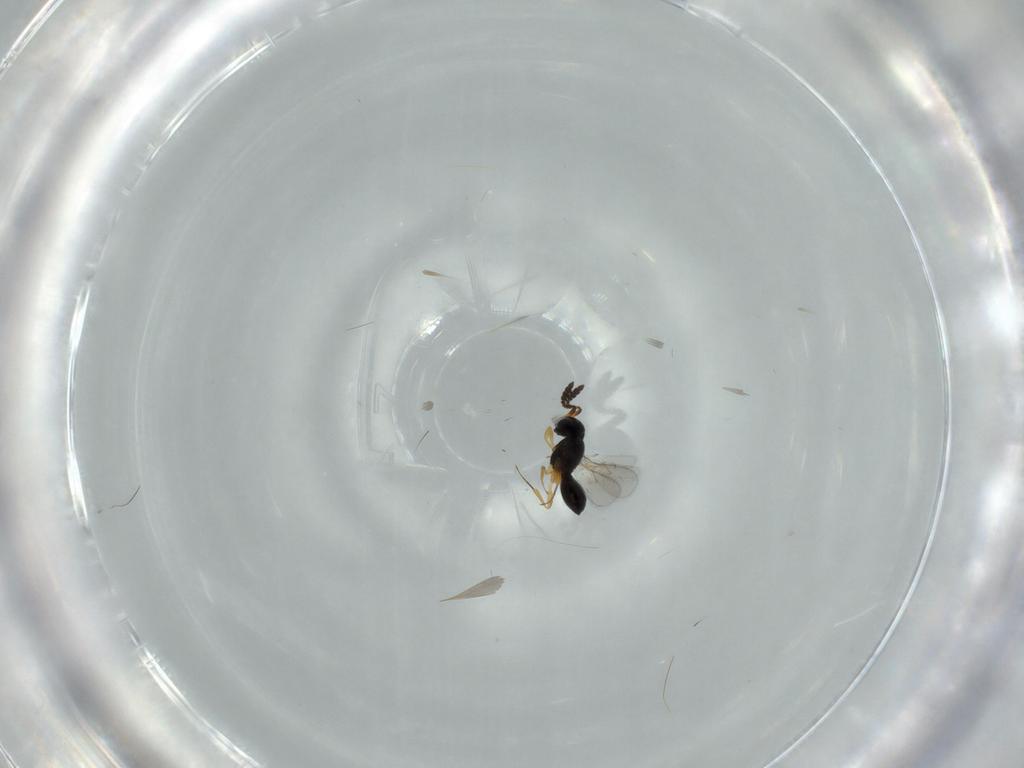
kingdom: Animalia
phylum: Arthropoda
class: Insecta
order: Hymenoptera
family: Scelionidae
